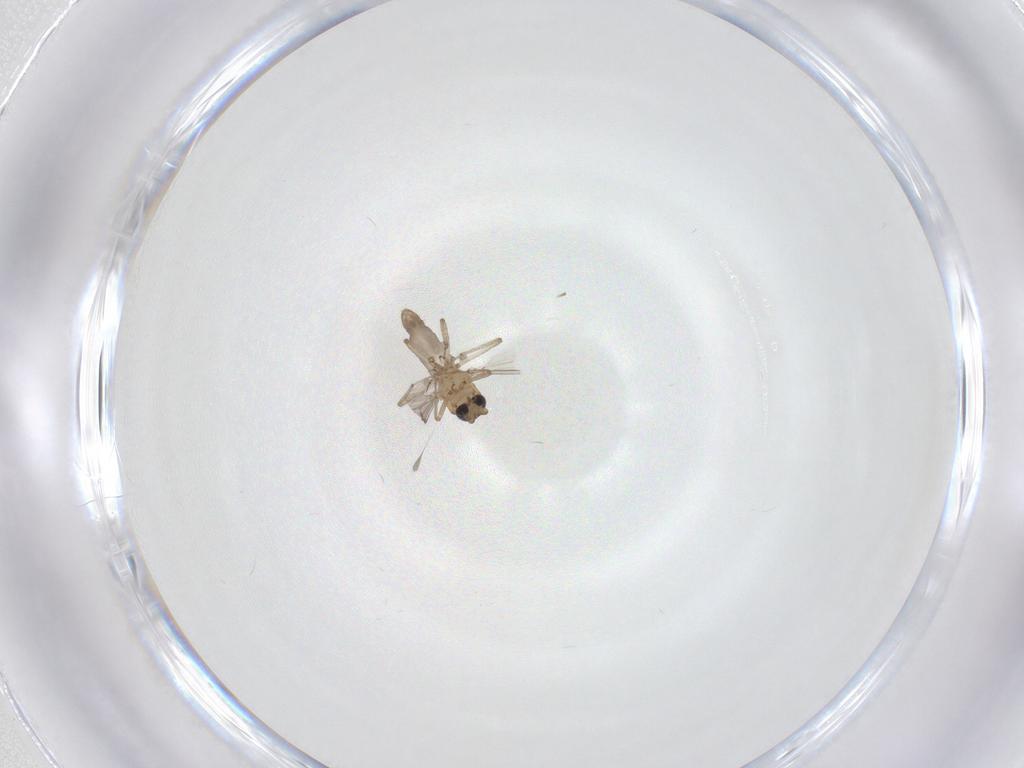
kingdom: Animalia
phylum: Arthropoda
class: Insecta
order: Diptera
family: Ceratopogonidae
